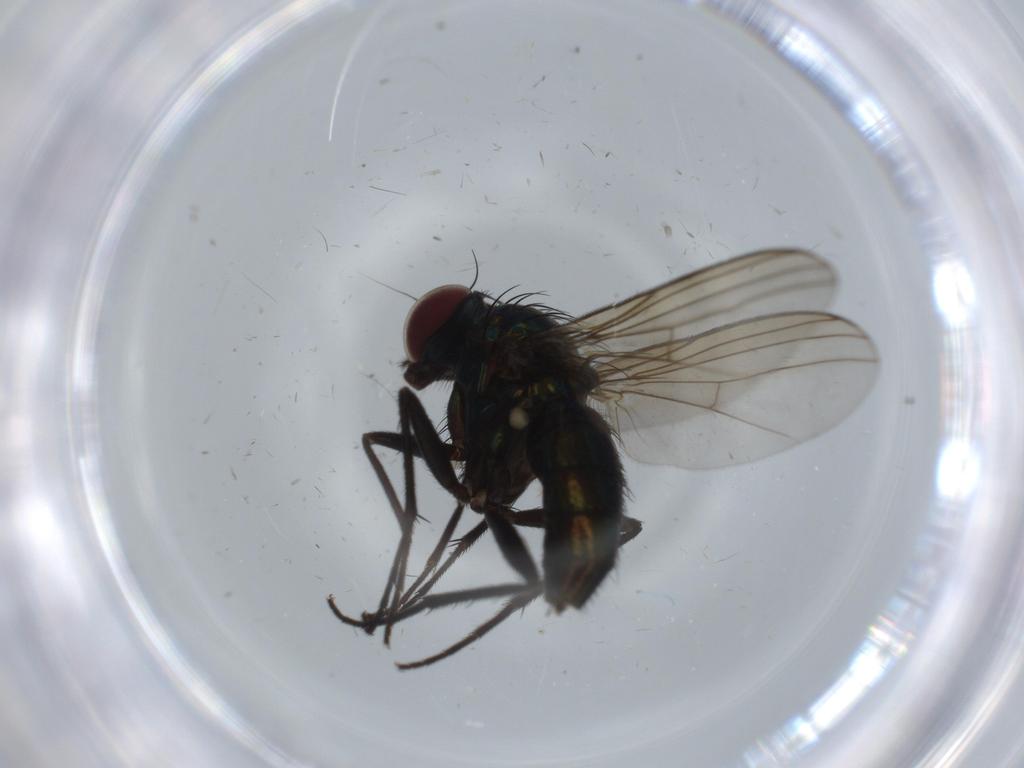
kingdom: Animalia
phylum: Arthropoda
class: Insecta
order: Diptera
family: Dolichopodidae
